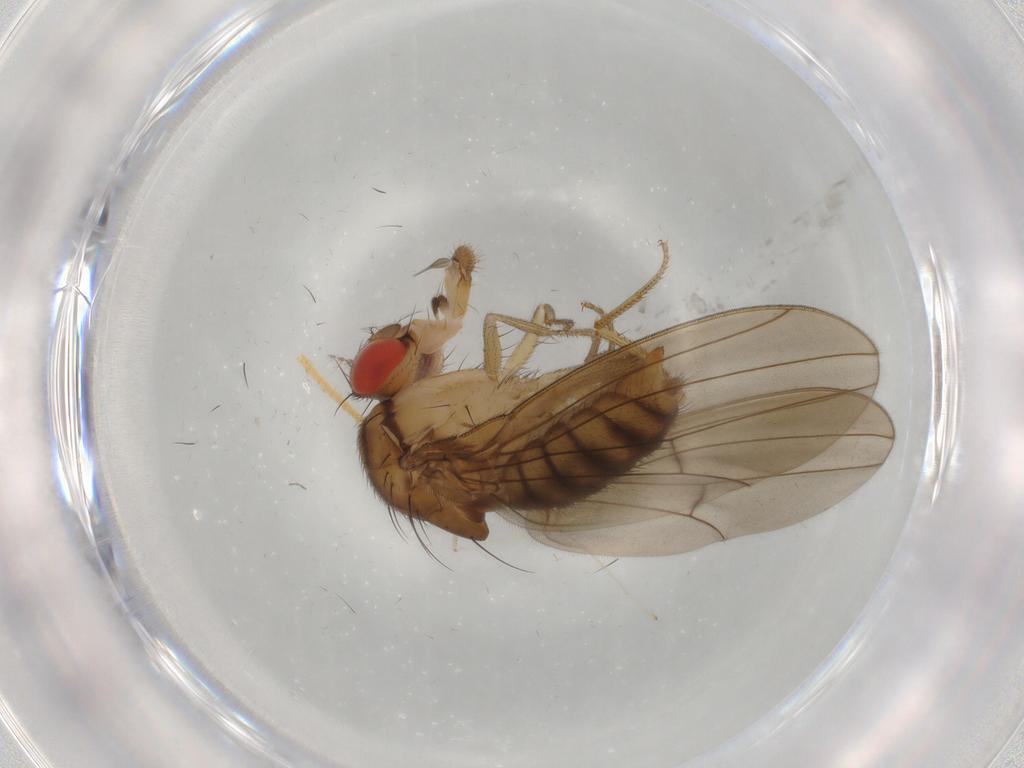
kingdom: Animalia
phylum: Arthropoda
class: Insecta
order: Diptera
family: Drosophilidae
